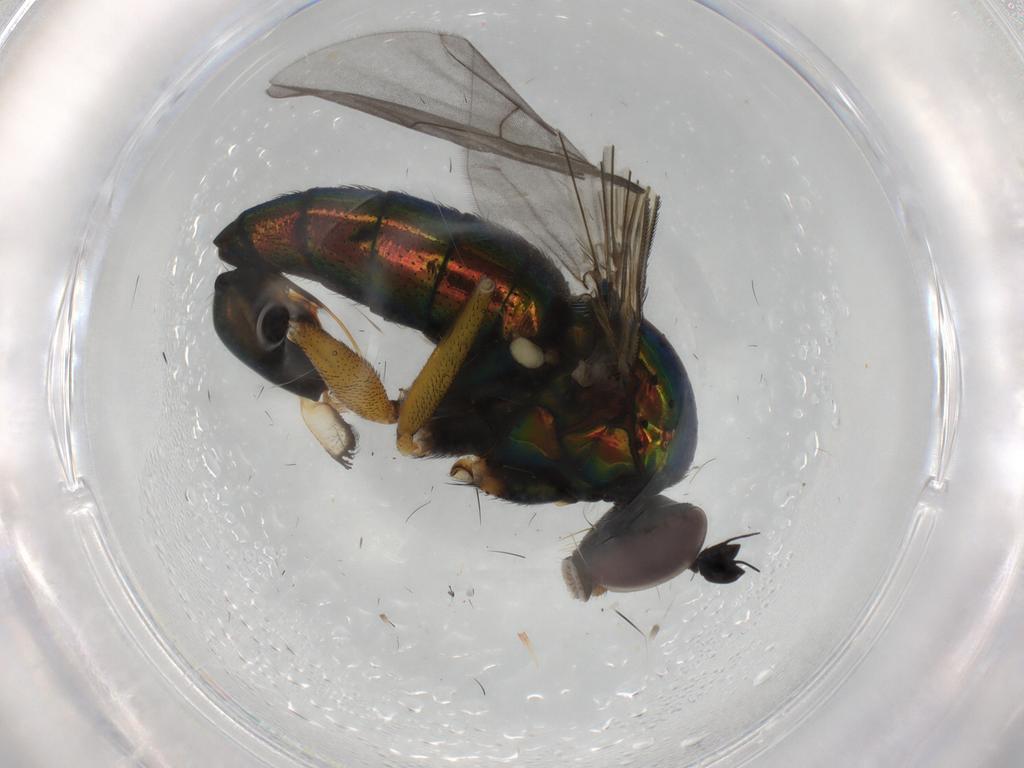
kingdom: Animalia
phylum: Arthropoda
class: Insecta
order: Diptera
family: Dolichopodidae
